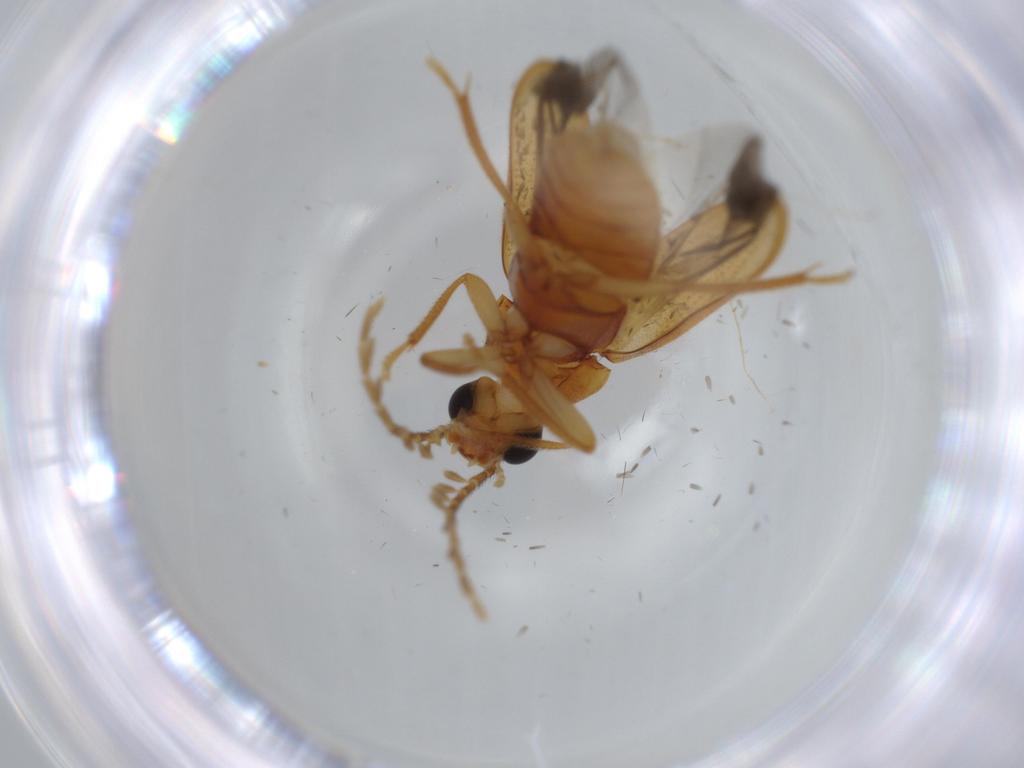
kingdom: Animalia
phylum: Arthropoda
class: Insecta
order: Coleoptera
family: Ptilodactylidae
